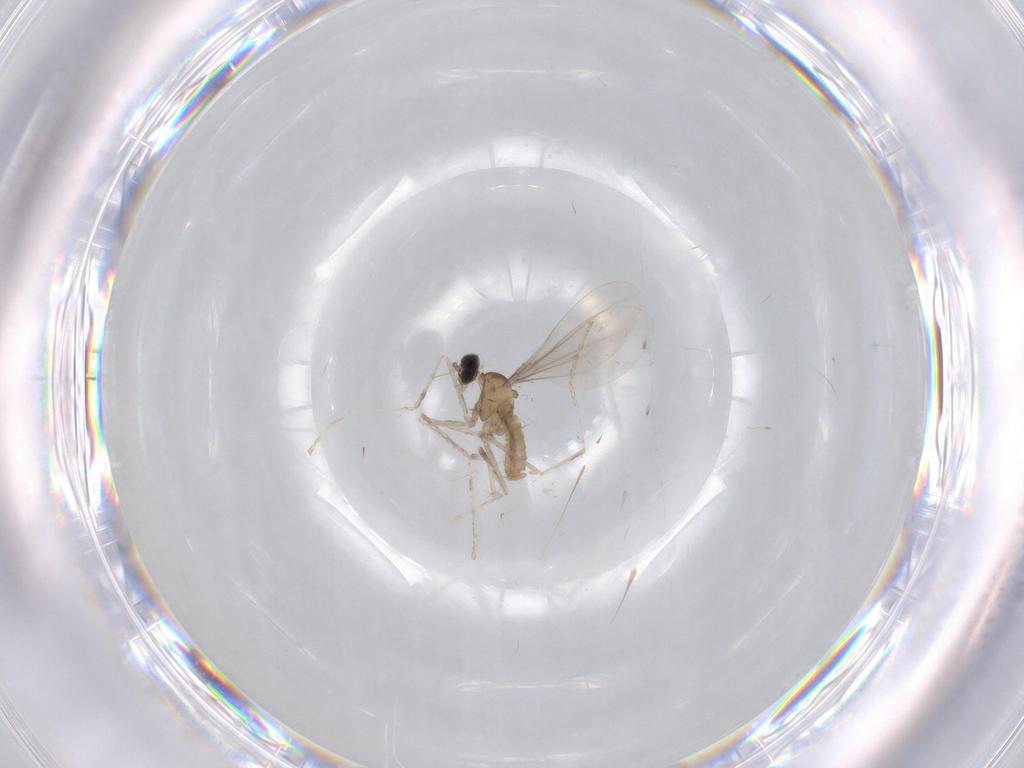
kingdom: Animalia
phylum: Arthropoda
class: Insecta
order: Diptera
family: Cecidomyiidae
